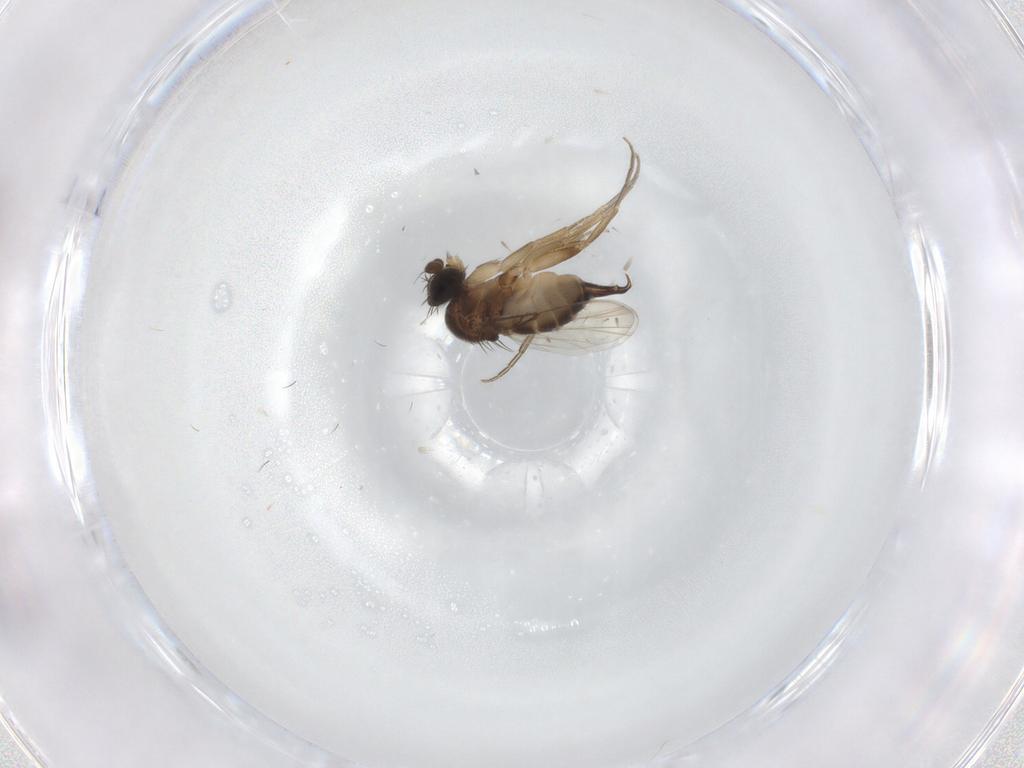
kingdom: Animalia
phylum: Arthropoda
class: Insecta
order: Diptera
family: Phoridae
